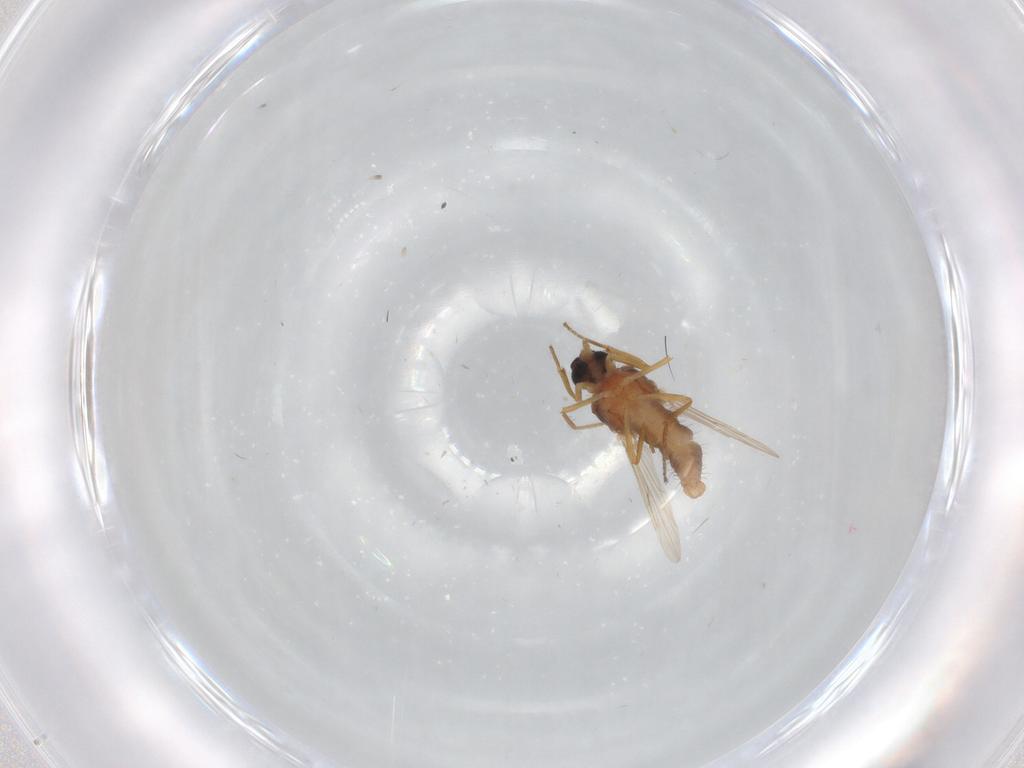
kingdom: Animalia
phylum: Arthropoda
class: Insecta
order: Diptera
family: Ceratopogonidae
